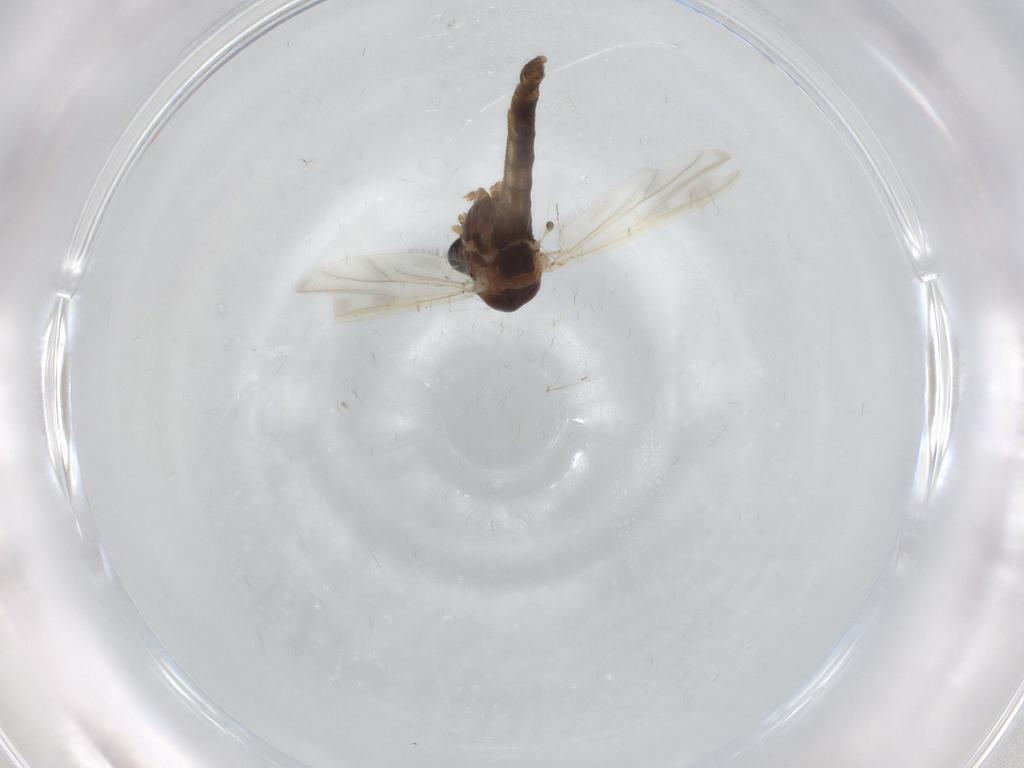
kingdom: Animalia
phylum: Arthropoda
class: Insecta
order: Diptera
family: Chironomidae
